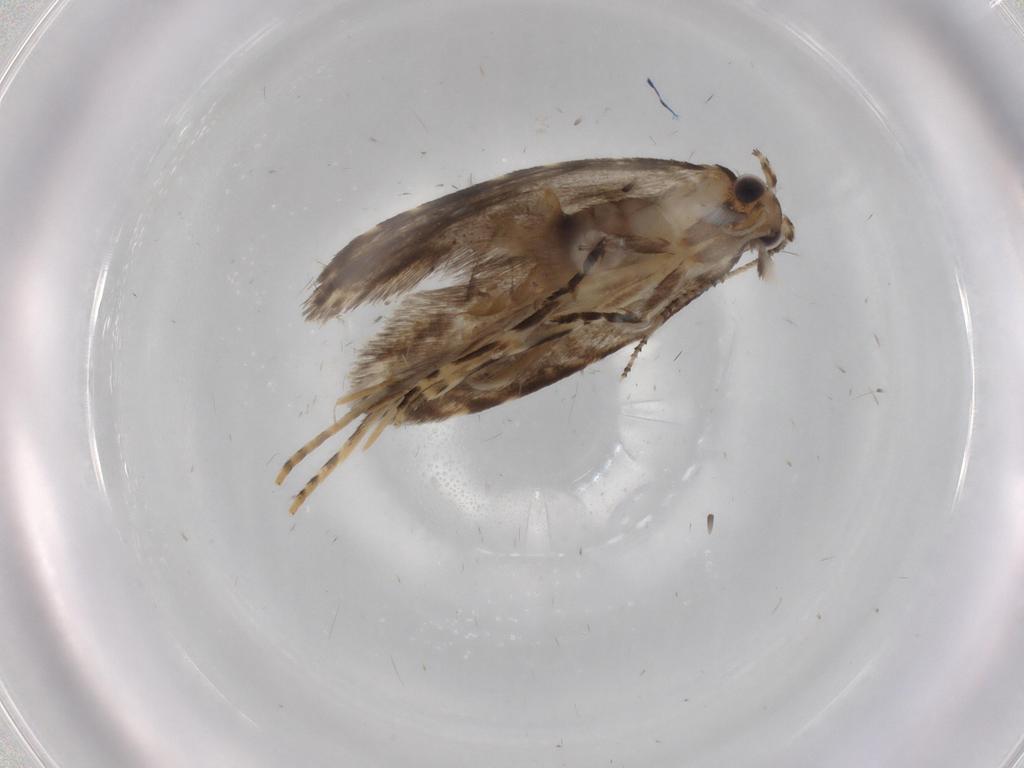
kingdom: Animalia
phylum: Arthropoda
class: Insecta
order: Lepidoptera
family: Tineidae
